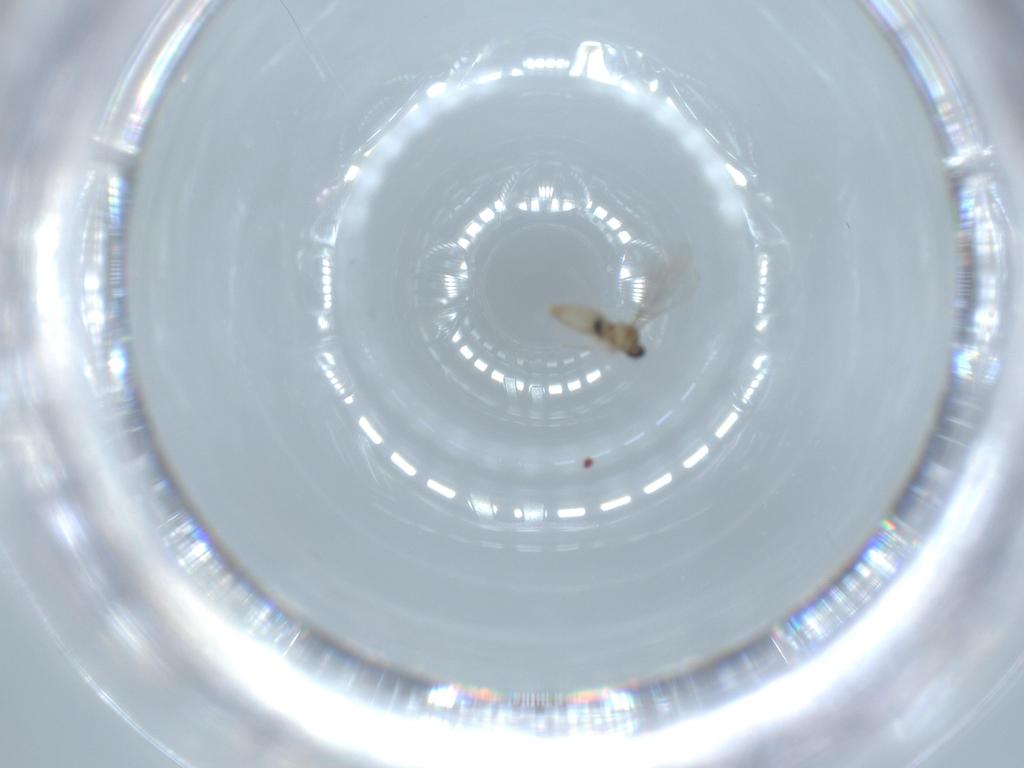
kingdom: Animalia
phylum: Arthropoda
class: Insecta
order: Diptera
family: Cecidomyiidae
